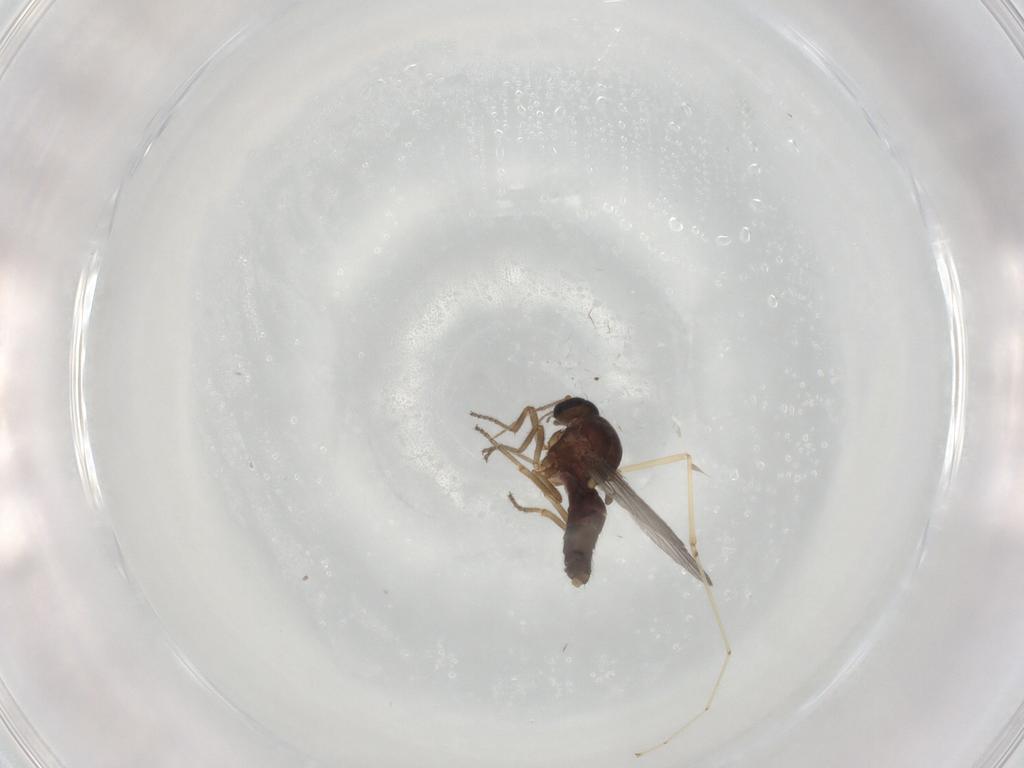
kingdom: Animalia
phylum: Arthropoda
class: Insecta
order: Diptera
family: Ceratopogonidae
